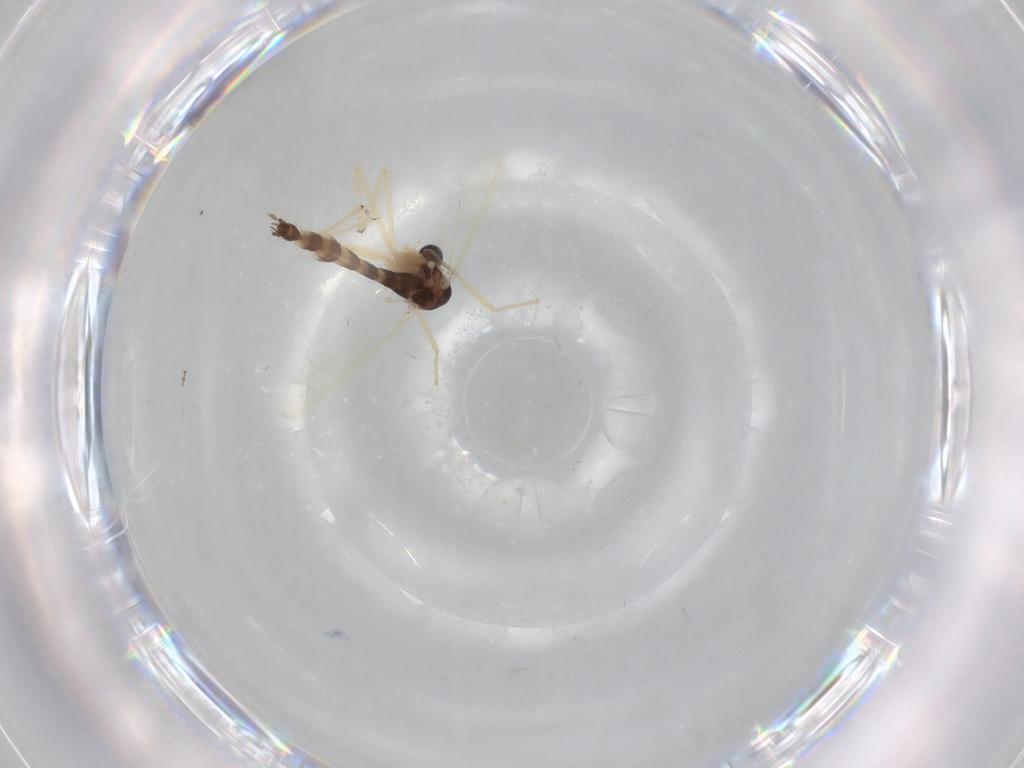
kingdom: Animalia
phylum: Arthropoda
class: Insecta
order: Diptera
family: Chironomidae
